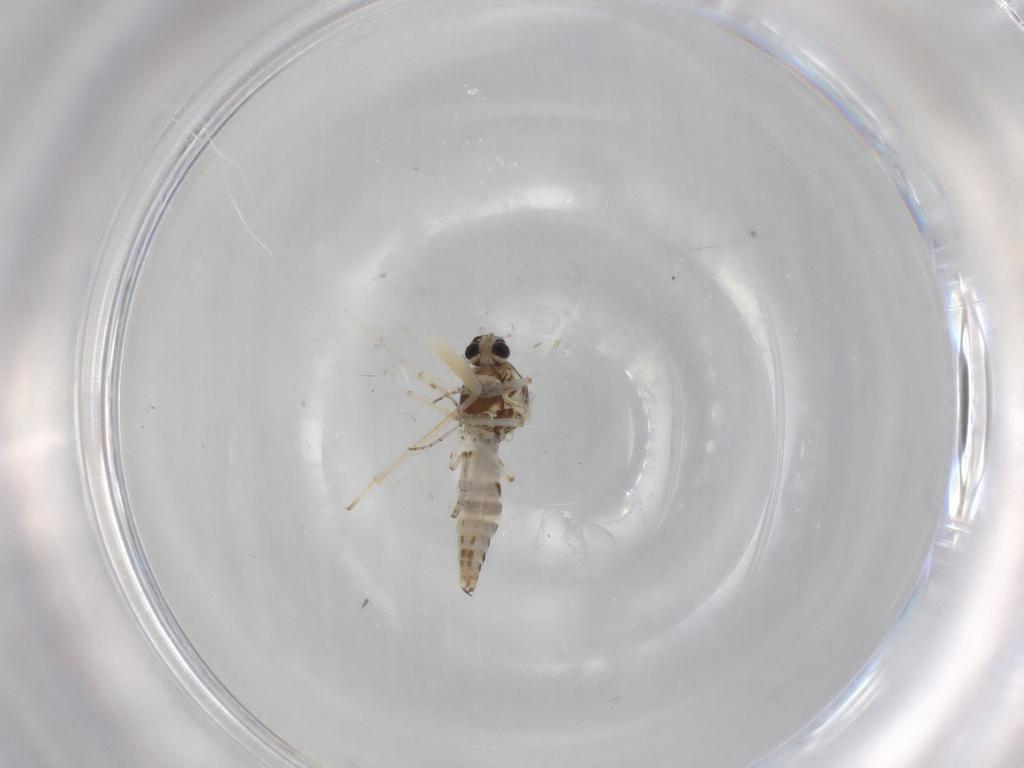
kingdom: Animalia
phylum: Arthropoda
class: Insecta
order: Diptera
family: Ceratopogonidae
